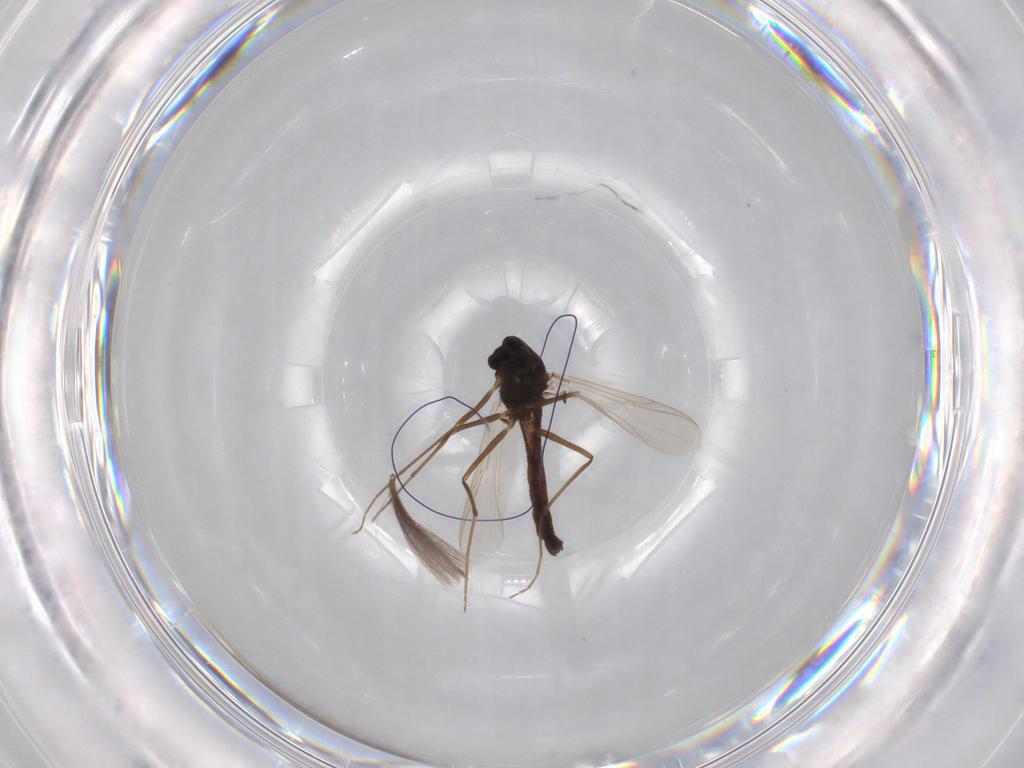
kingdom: Animalia
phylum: Arthropoda
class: Insecta
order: Diptera
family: Chironomidae
